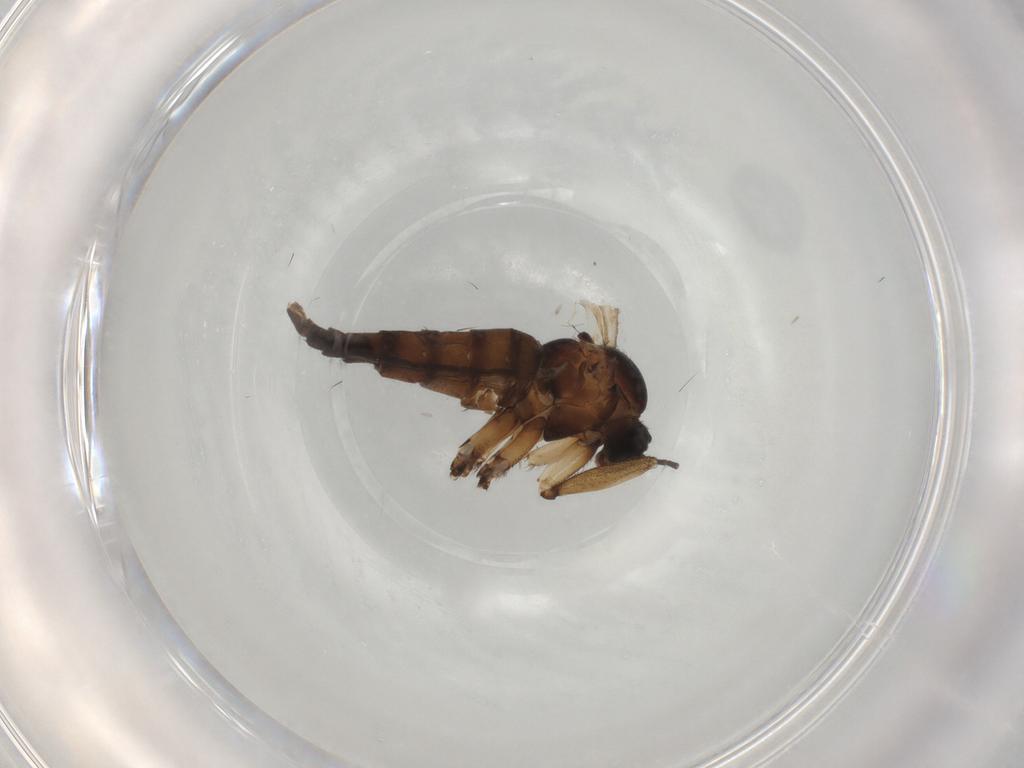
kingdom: Animalia
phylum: Arthropoda
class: Insecta
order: Diptera
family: Sciaridae
